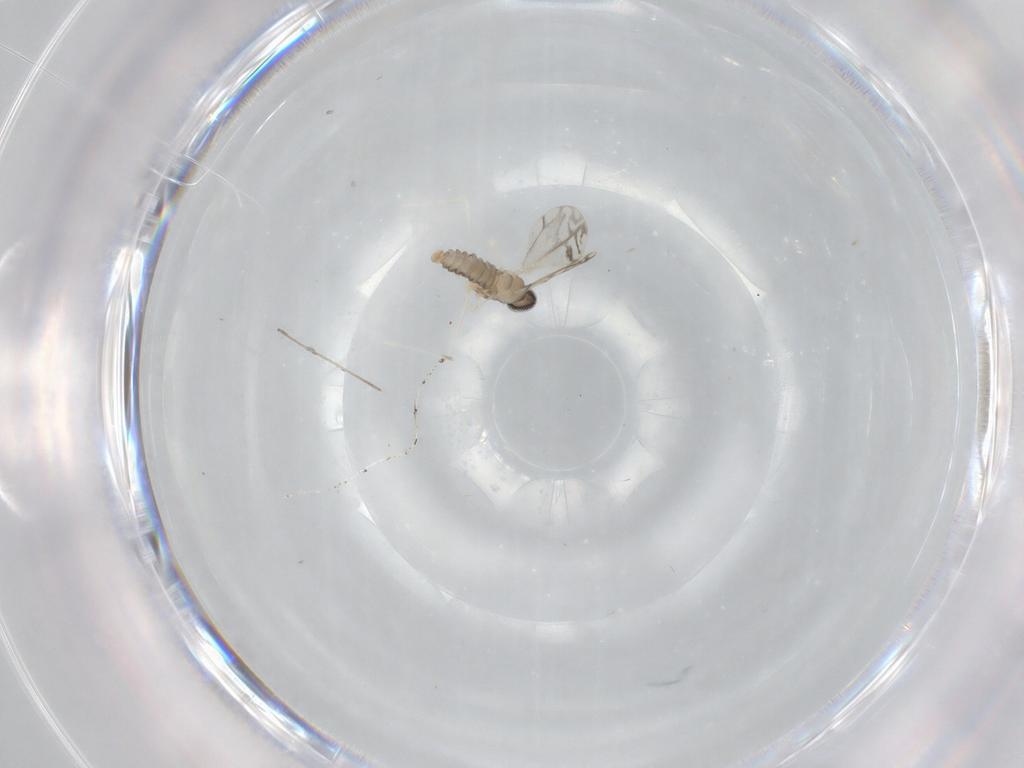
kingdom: Animalia
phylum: Arthropoda
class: Insecta
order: Diptera
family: Cecidomyiidae
